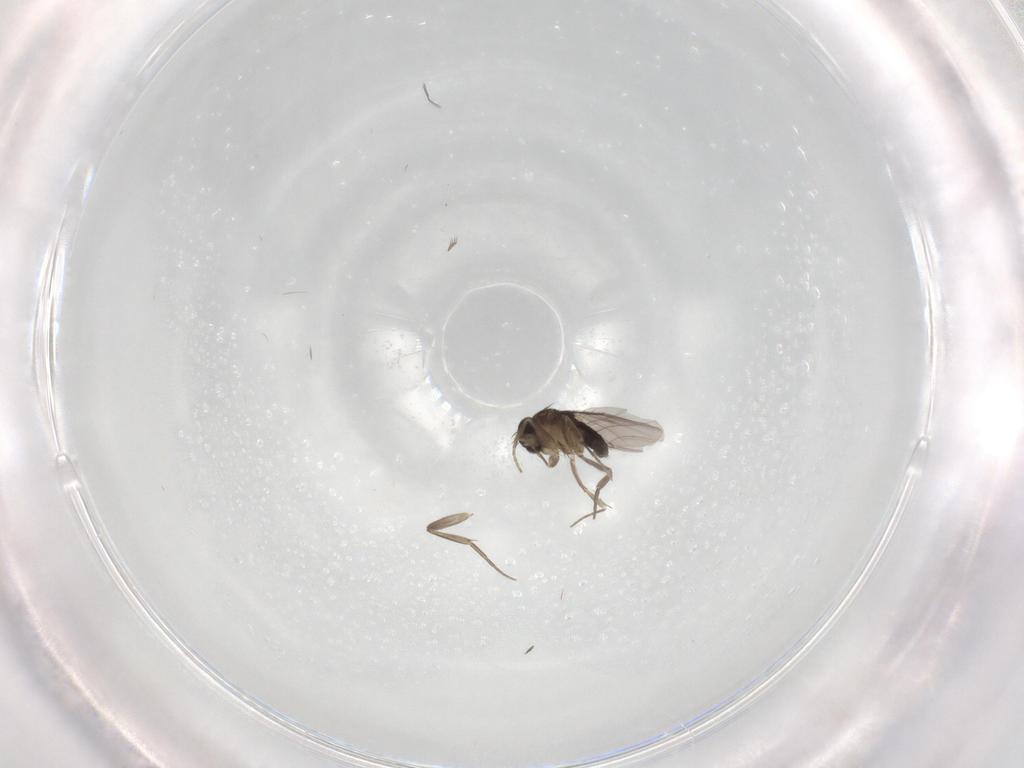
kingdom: Animalia
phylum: Arthropoda
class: Insecta
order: Diptera
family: Phoridae
